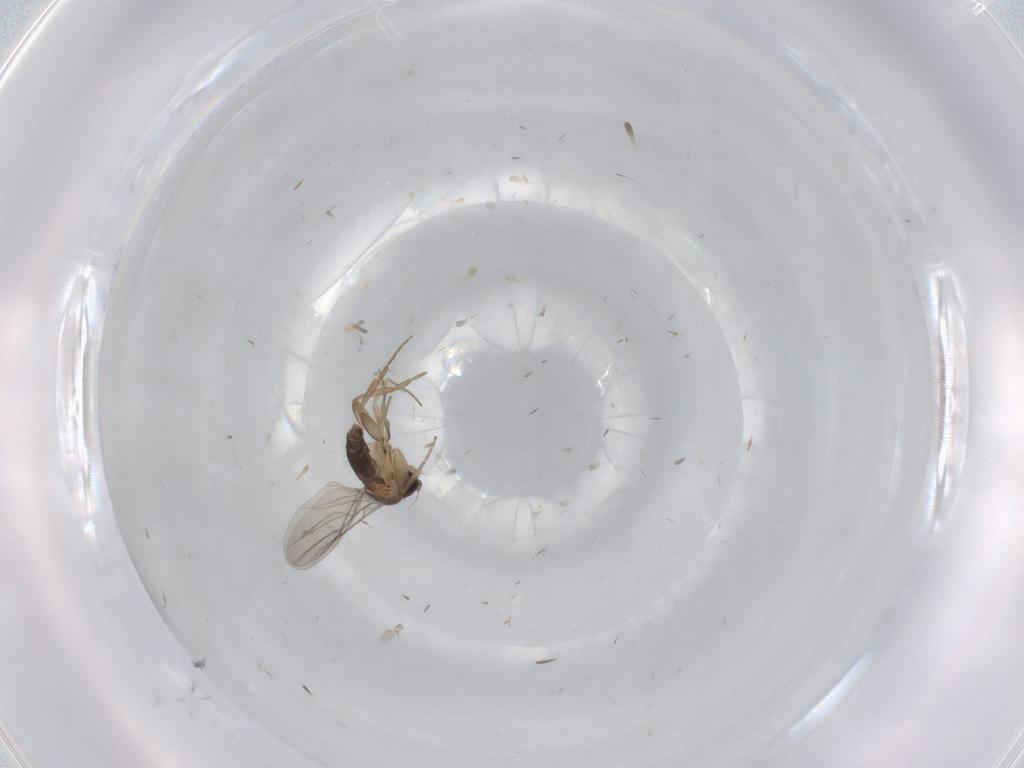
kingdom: Animalia
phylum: Arthropoda
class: Insecta
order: Diptera
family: Phoridae
